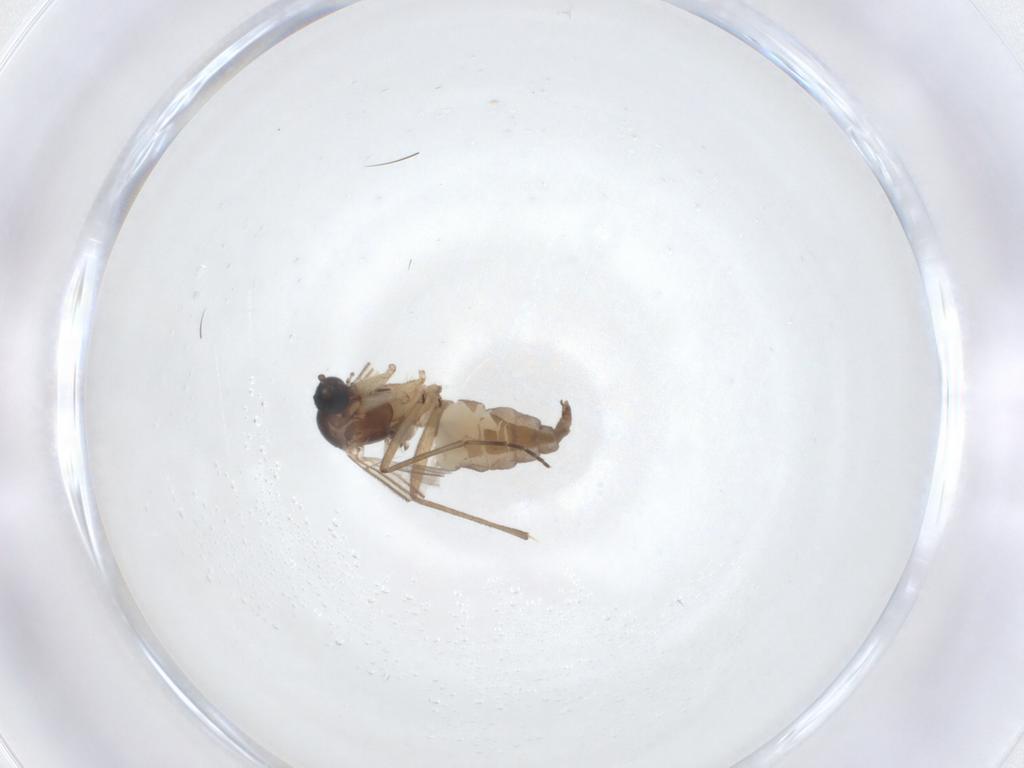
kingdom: Animalia
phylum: Arthropoda
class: Insecta
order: Diptera
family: Sciaridae
